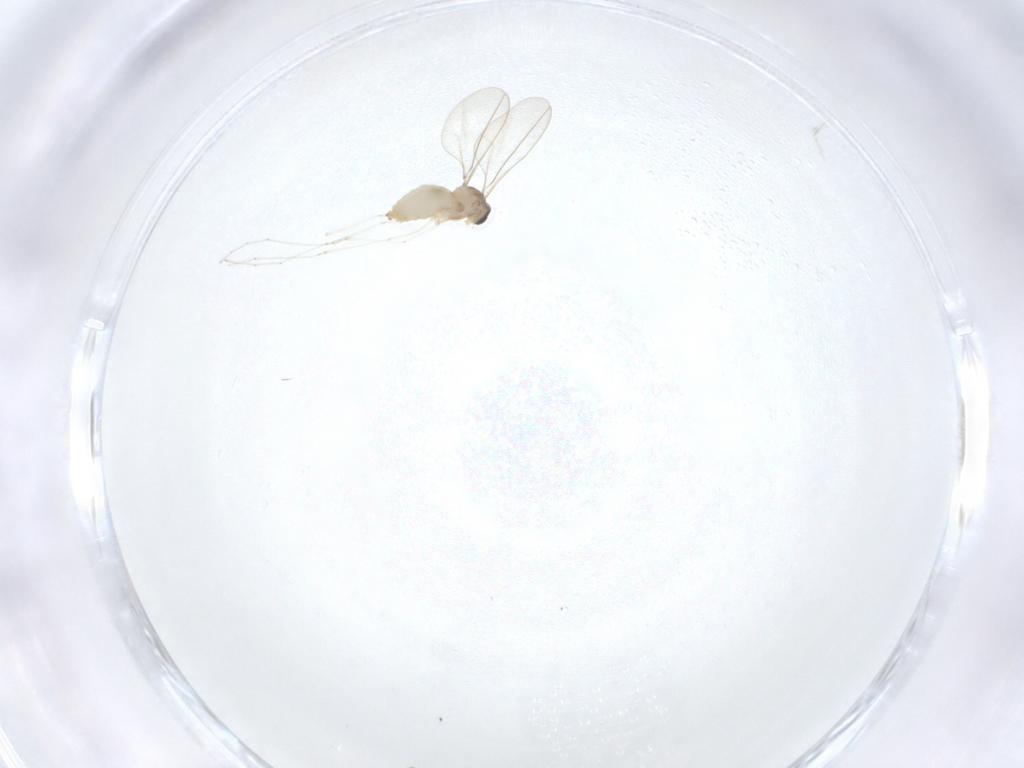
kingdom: Animalia
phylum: Arthropoda
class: Insecta
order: Diptera
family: Cecidomyiidae
